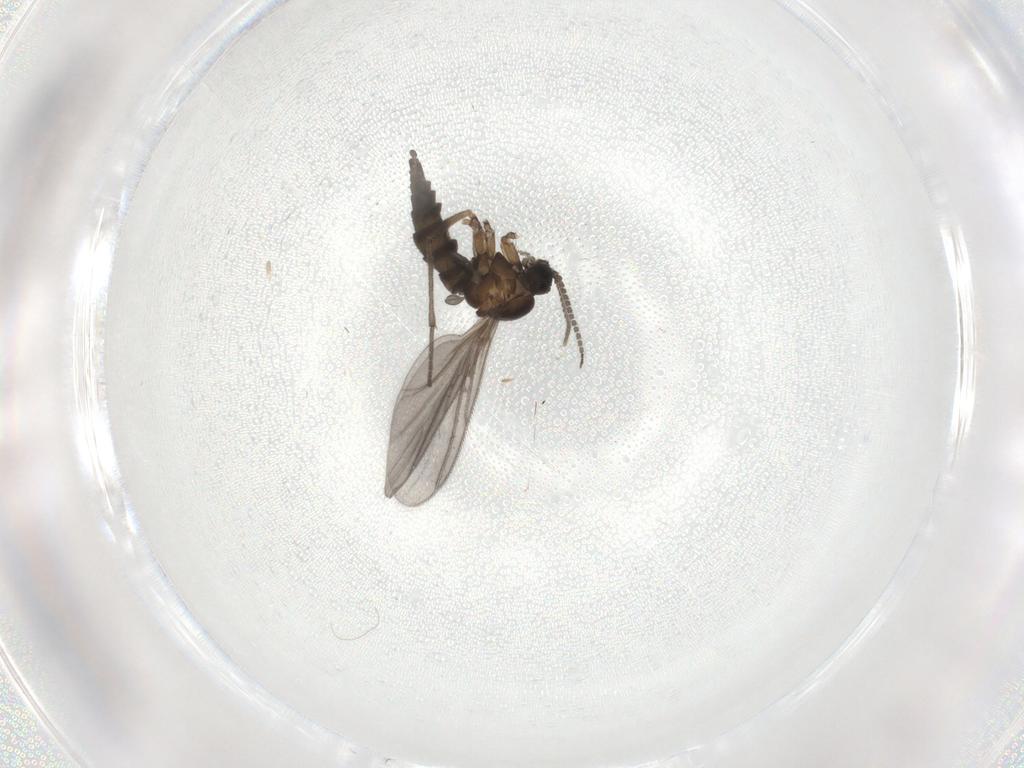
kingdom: Animalia
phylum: Arthropoda
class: Insecta
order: Diptera
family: Sciaridae
